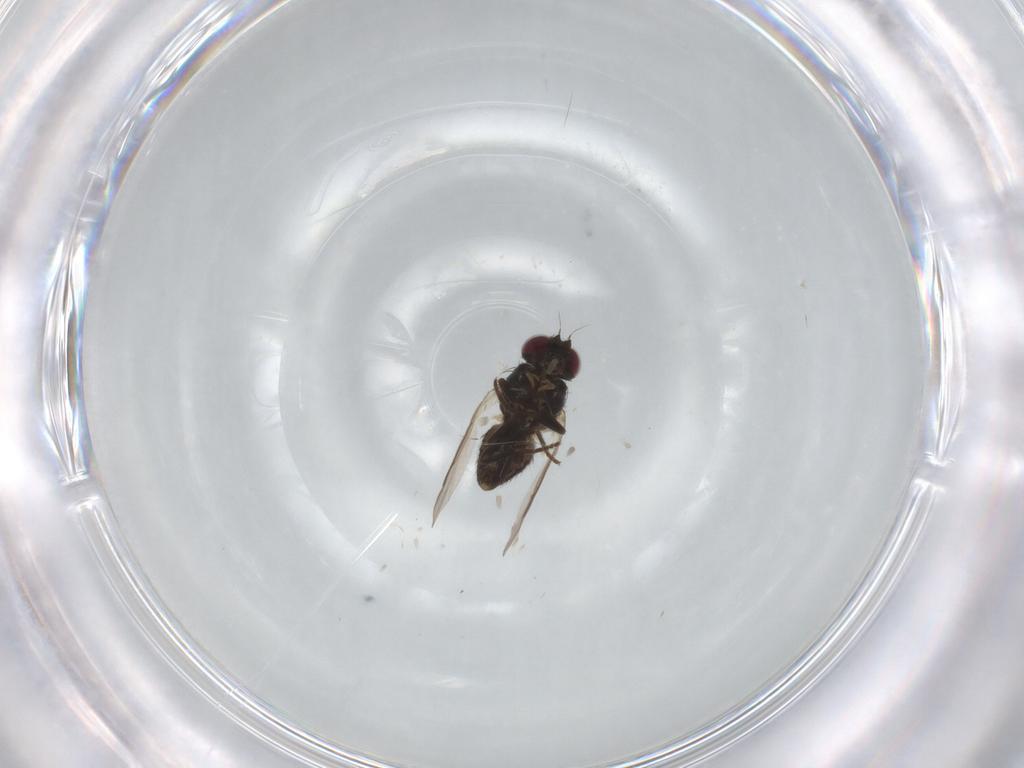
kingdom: Animalia
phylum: Arthropoda
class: Insecta
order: Diptera
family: Agromyzidae
